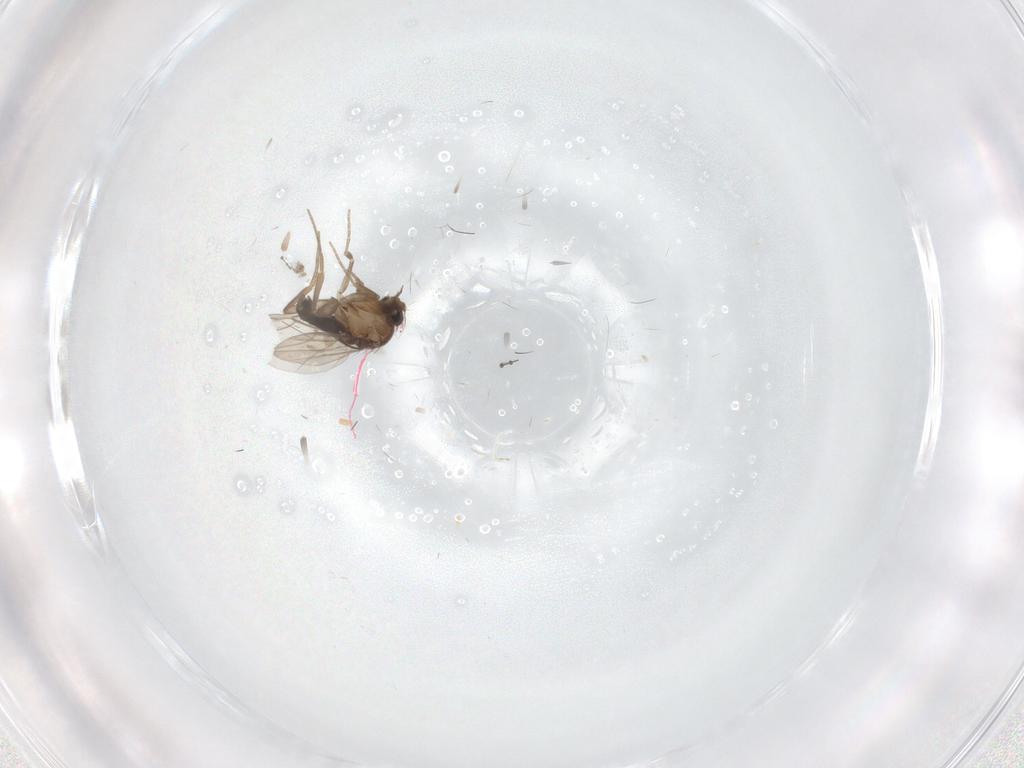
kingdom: Animalia
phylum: Arthropoda
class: Insecta
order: Diptera
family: Phoridae
